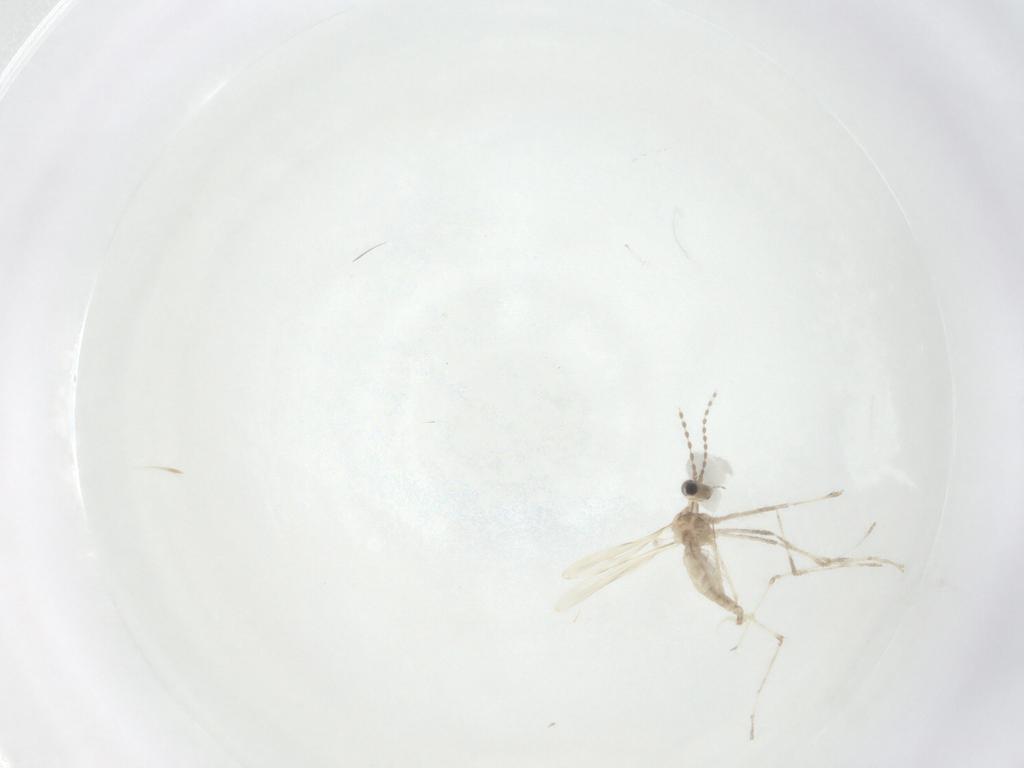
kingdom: Animalia
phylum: Arthropoda
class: Insecta
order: Diptera
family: Cecidomyiidae
